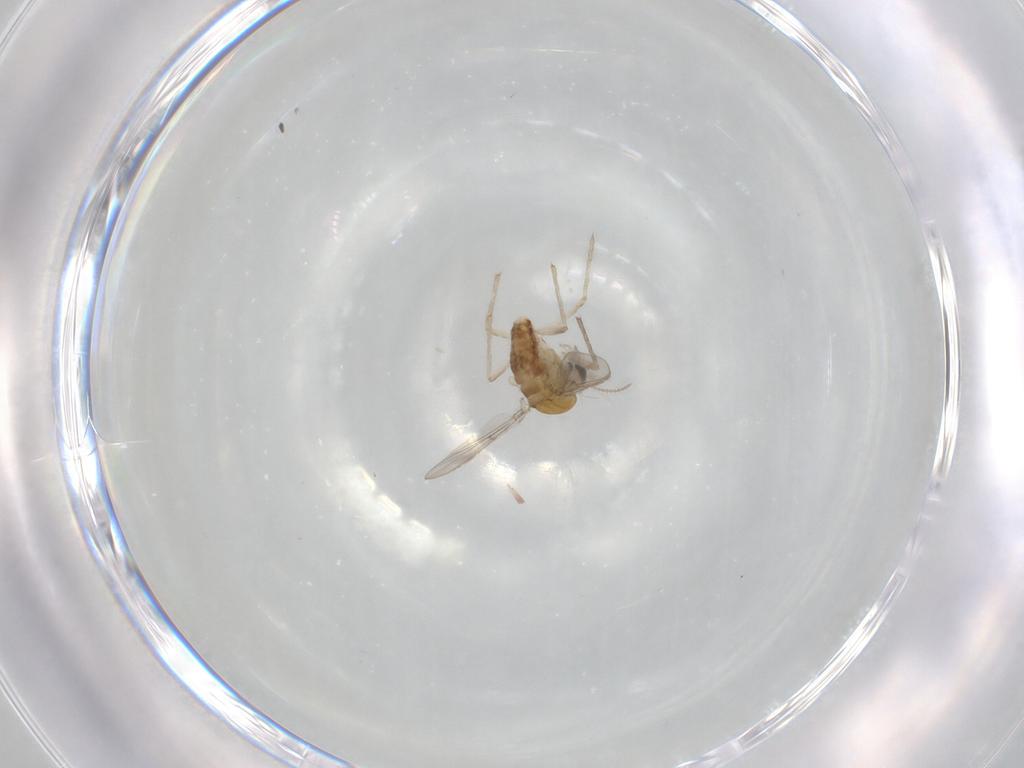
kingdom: Animalia
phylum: Arthropoda
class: Insecta
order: Diptera
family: Chironomidae
